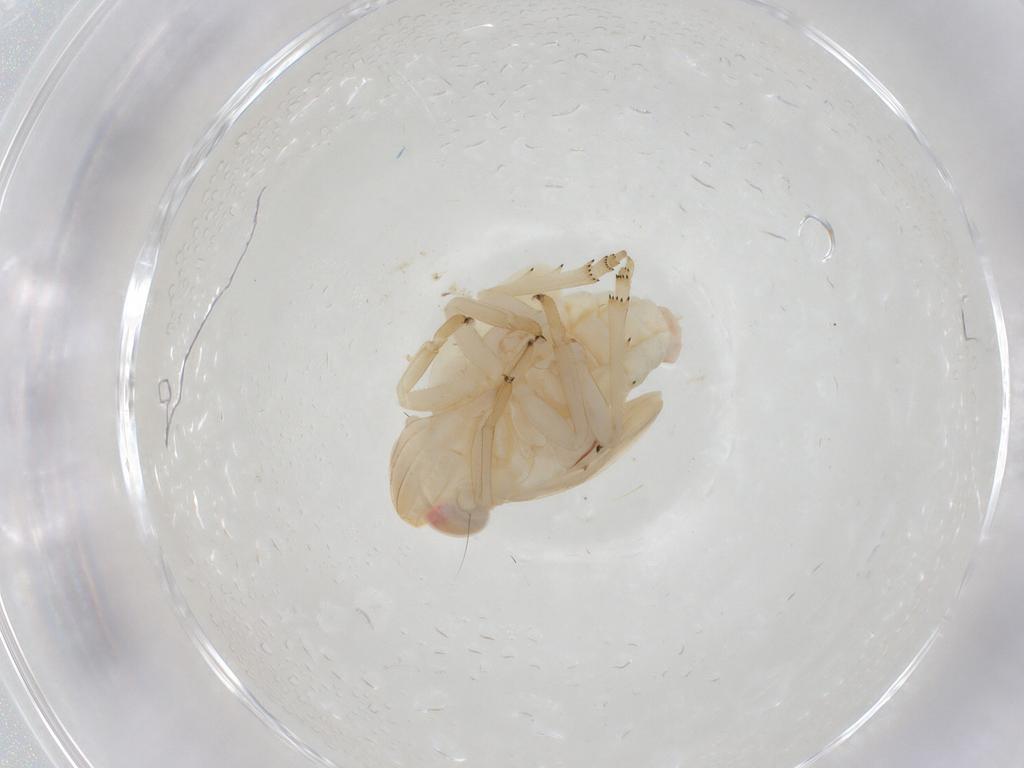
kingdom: Animalia
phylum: Arthropoda
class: Insecta
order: Hemiptera
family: Nogodinidae
